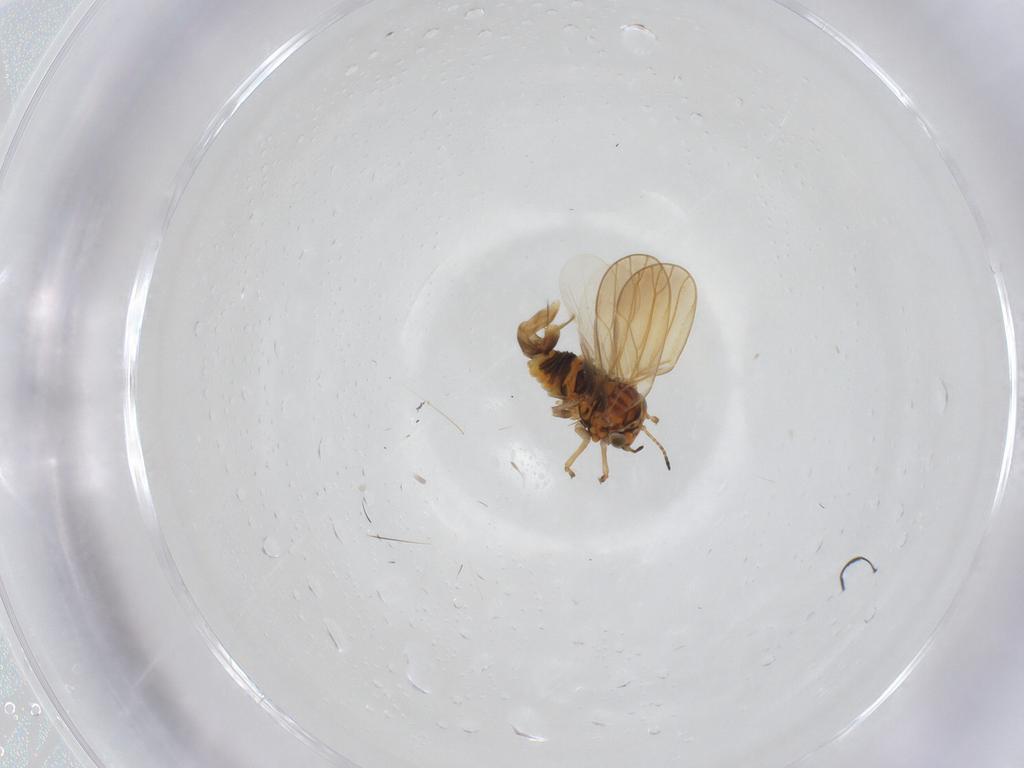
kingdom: Animalia
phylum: Arthropoda
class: Insecta
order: Hemiptera
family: Aphalaridae
